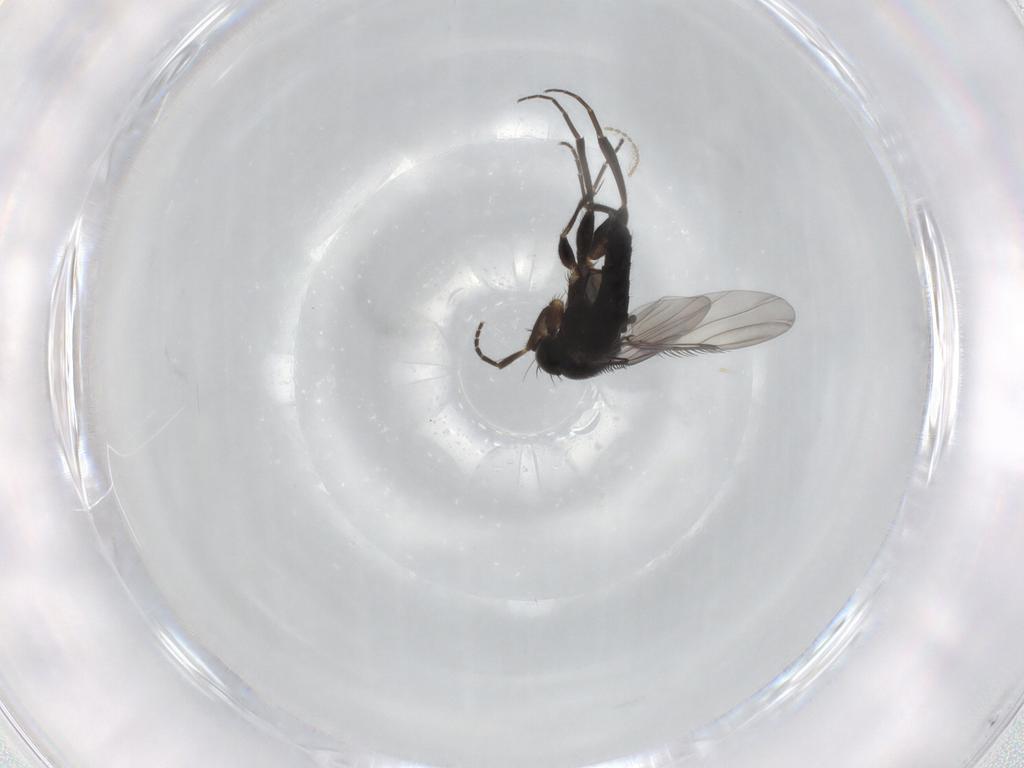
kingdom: Animalia
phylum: Arthropoda
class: Insecta
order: Diptera
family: Phoridae
